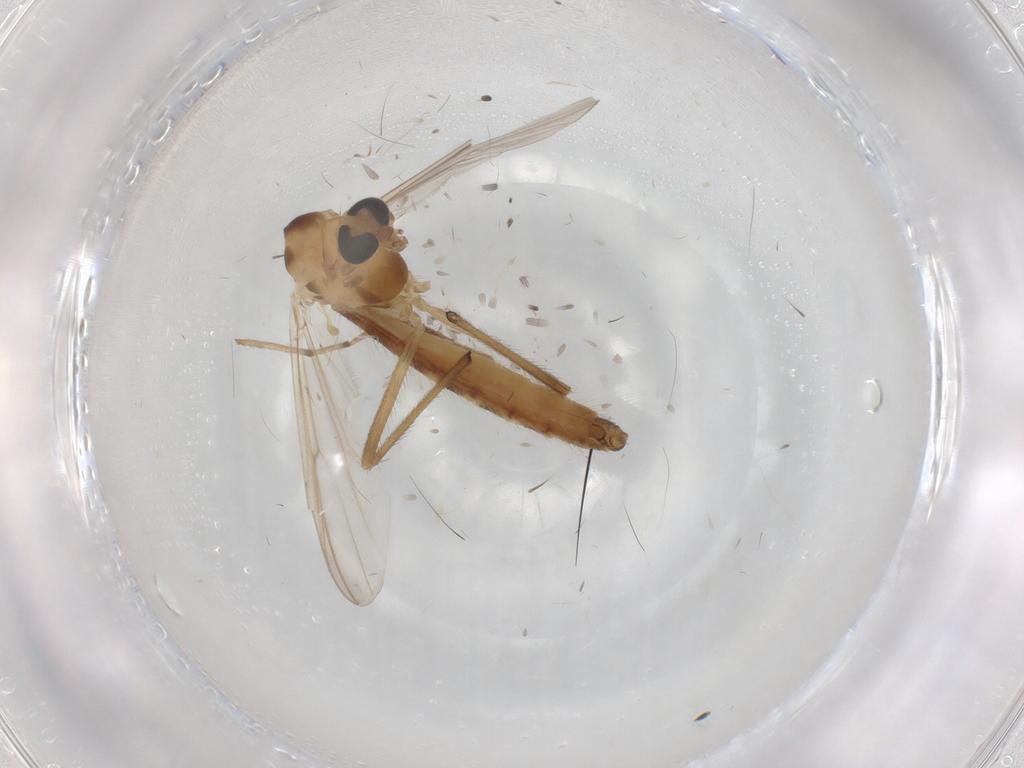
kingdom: Animalia
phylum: Arthropoda
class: Insecta
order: Diptera
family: Chironomidae
